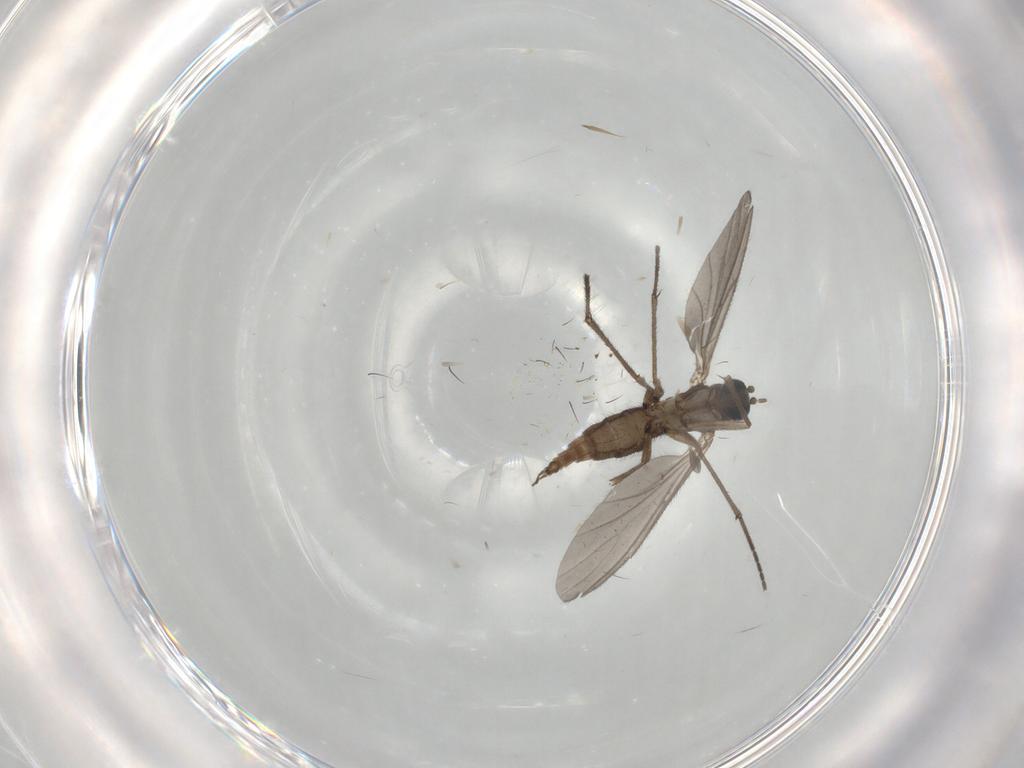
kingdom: Animalia
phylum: Arthropoda
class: Insecta
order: Diptera
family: Sciaridae
